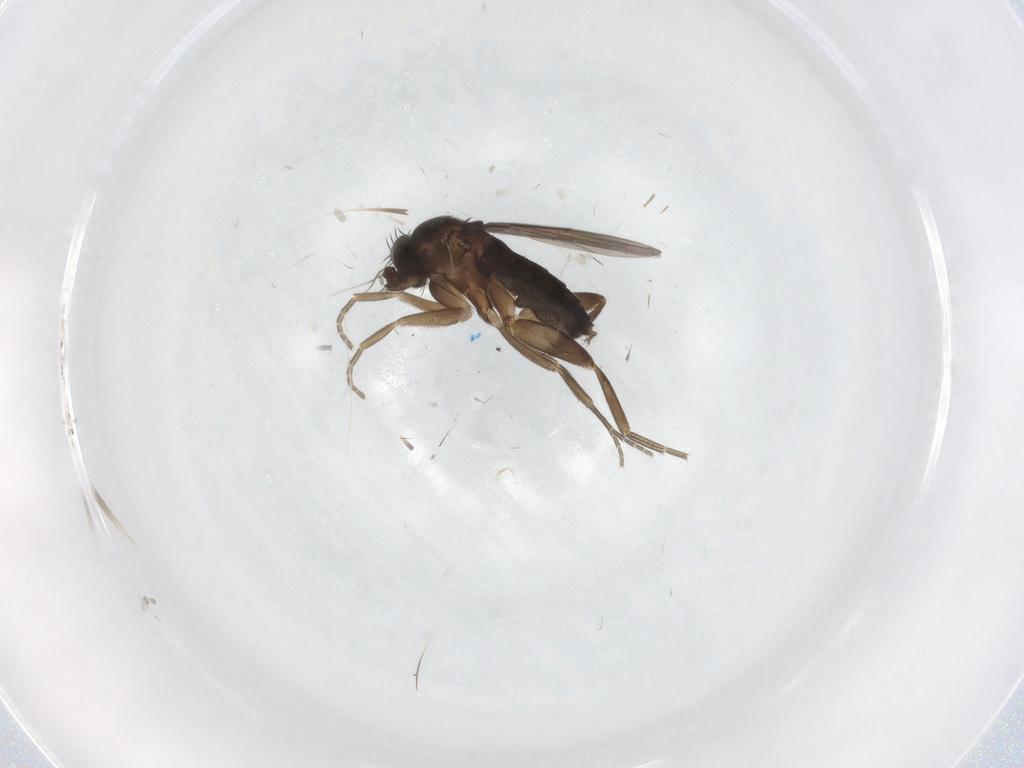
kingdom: Animalia
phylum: Arthropoda
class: Insecta
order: Diptera
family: Phoridae
